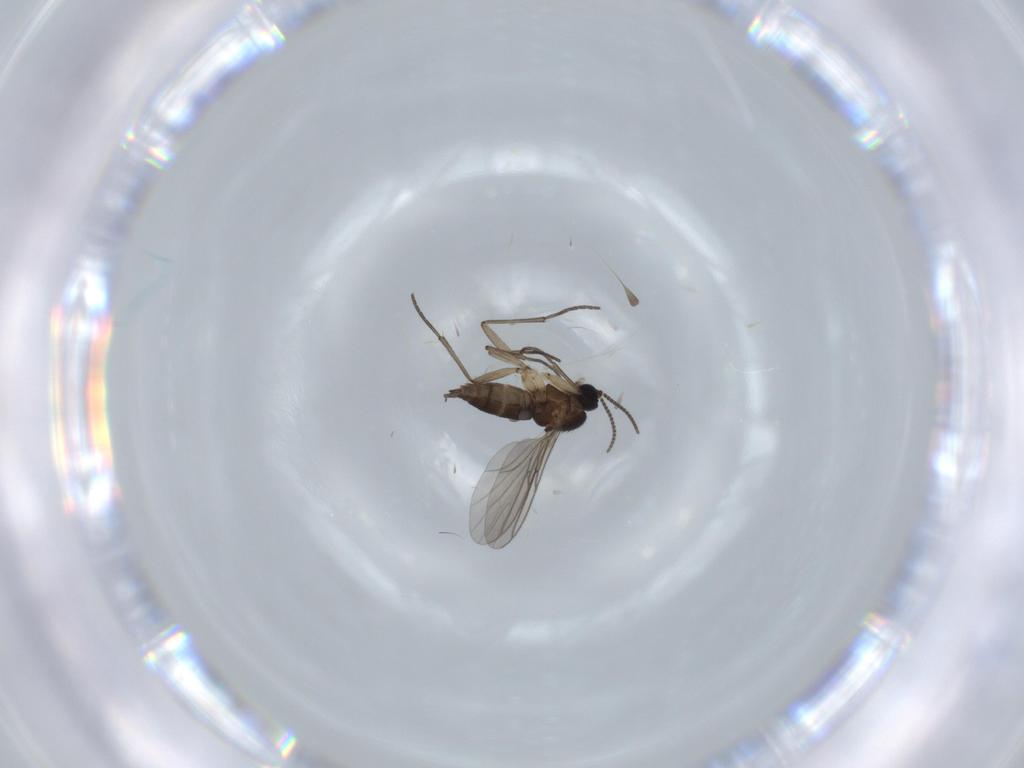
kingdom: Animalia
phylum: Arthropoda
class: Insecta
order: Diptera
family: Sciaridae
